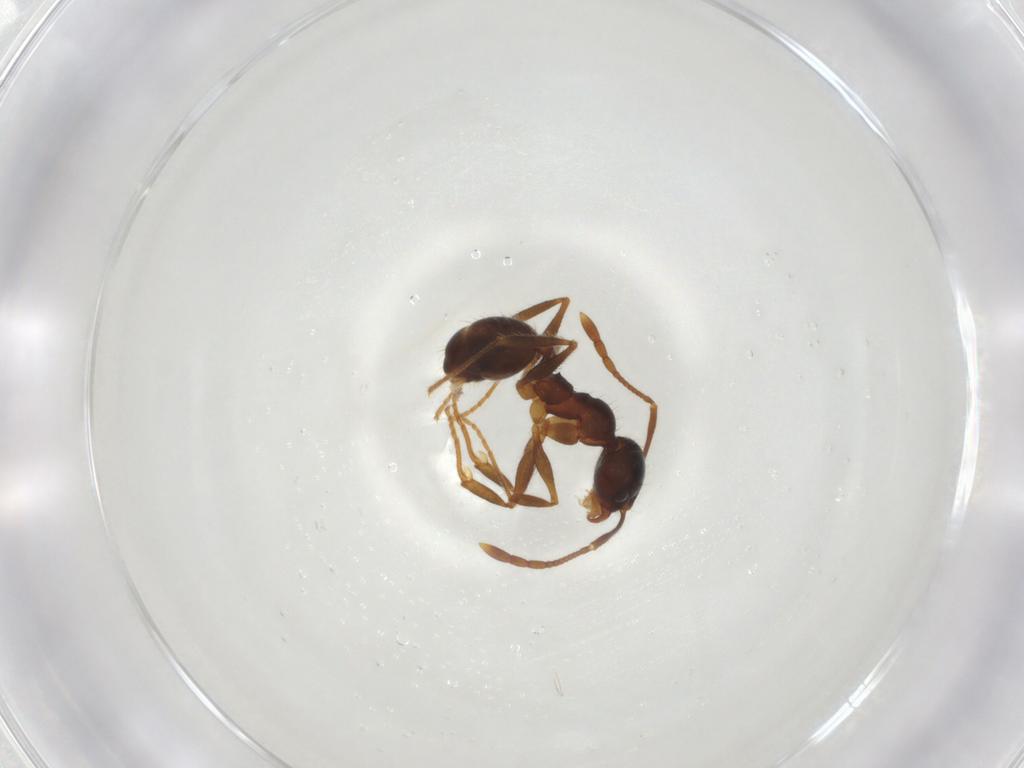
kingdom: Animalia
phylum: Arthropoda
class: Insecta
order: Hymenoptera
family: Formicidae
